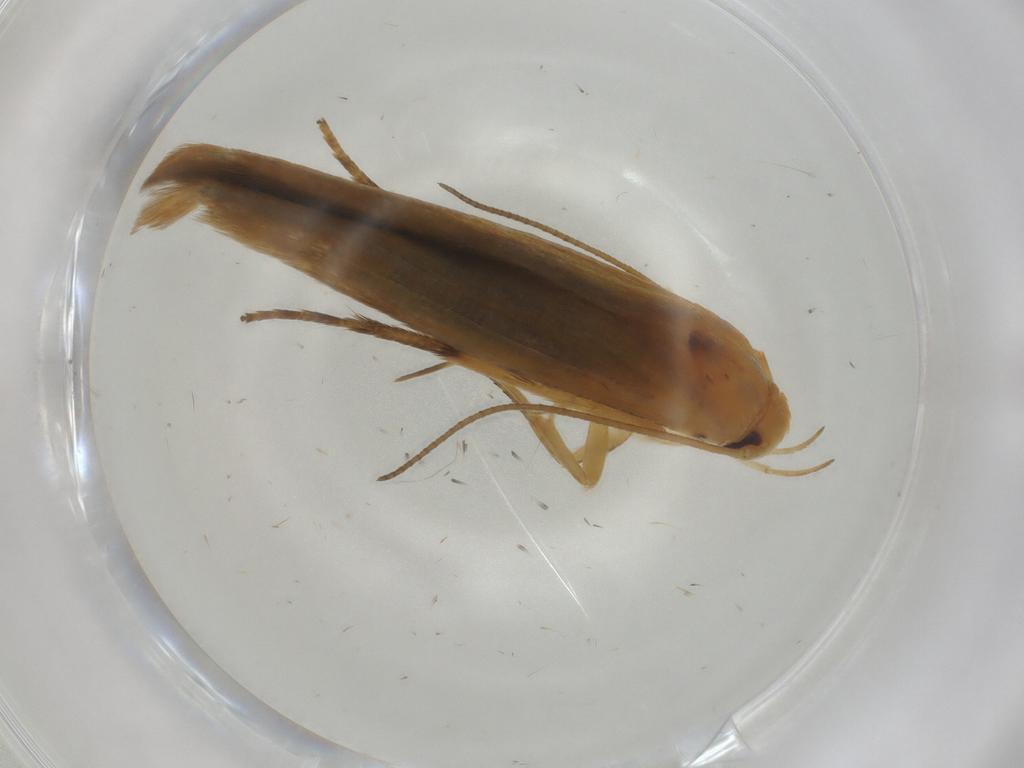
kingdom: Animalia
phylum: Arthropoda
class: Insecta
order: Lepidoptera
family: Stathmopodidae
